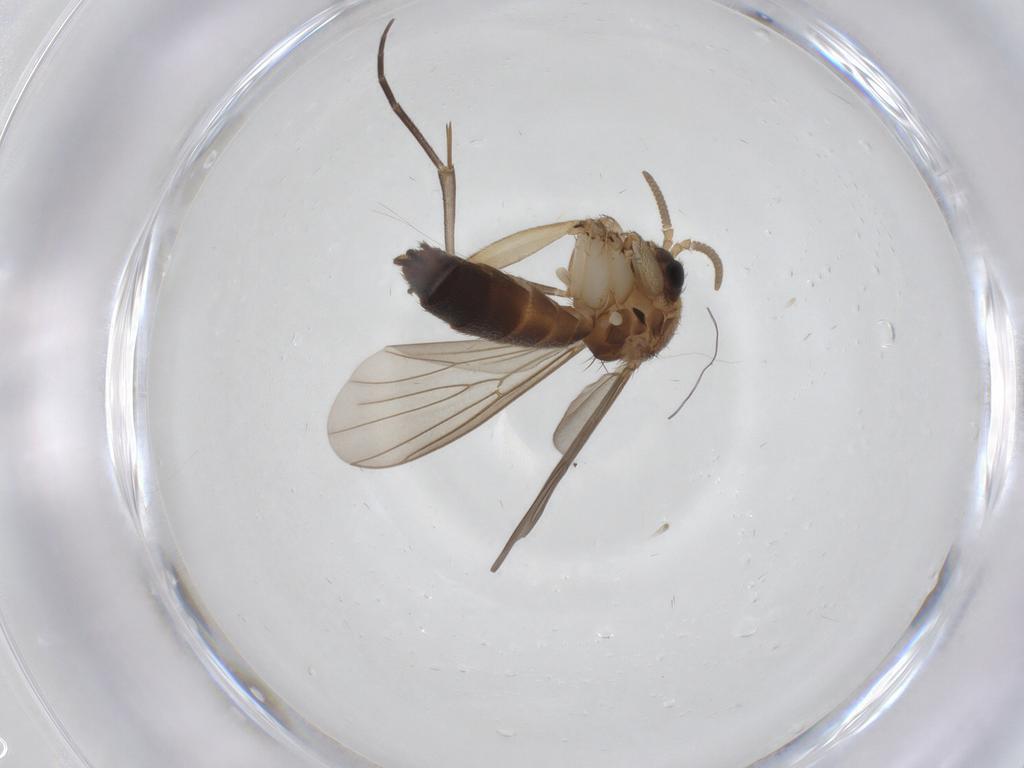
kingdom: Animalia
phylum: Arthropoda
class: Insecta
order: Diptera
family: Mycetophilidae
